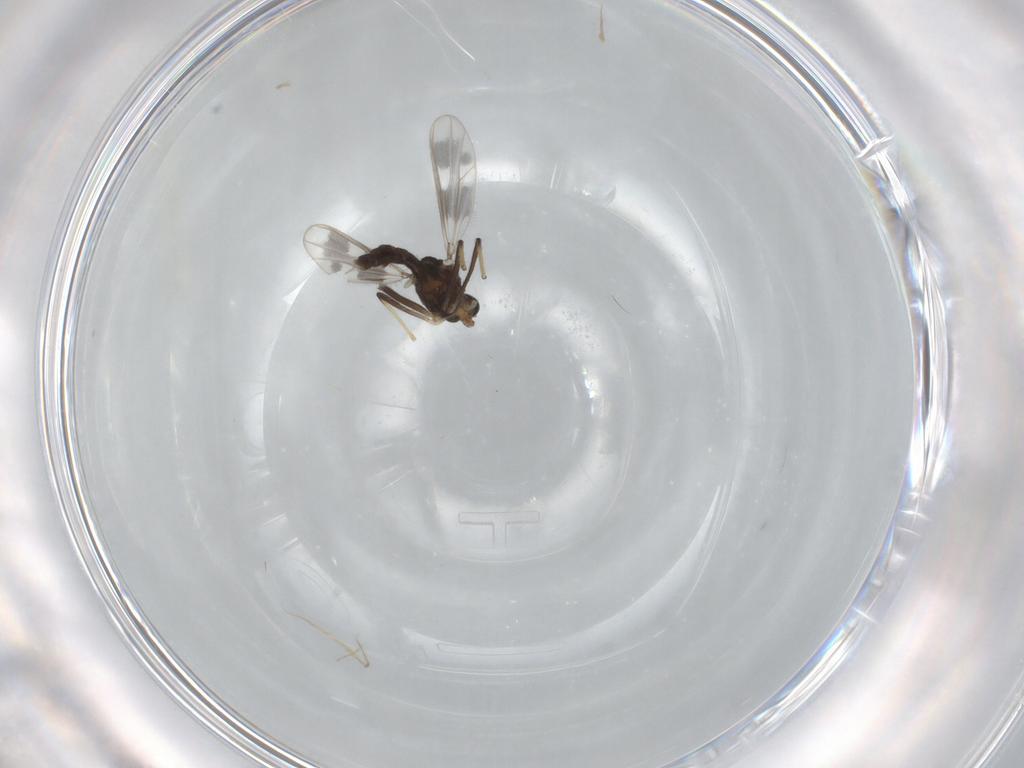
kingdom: Animalia
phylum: Arthropoda
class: Insecta
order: Diptera
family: Chironomidae
